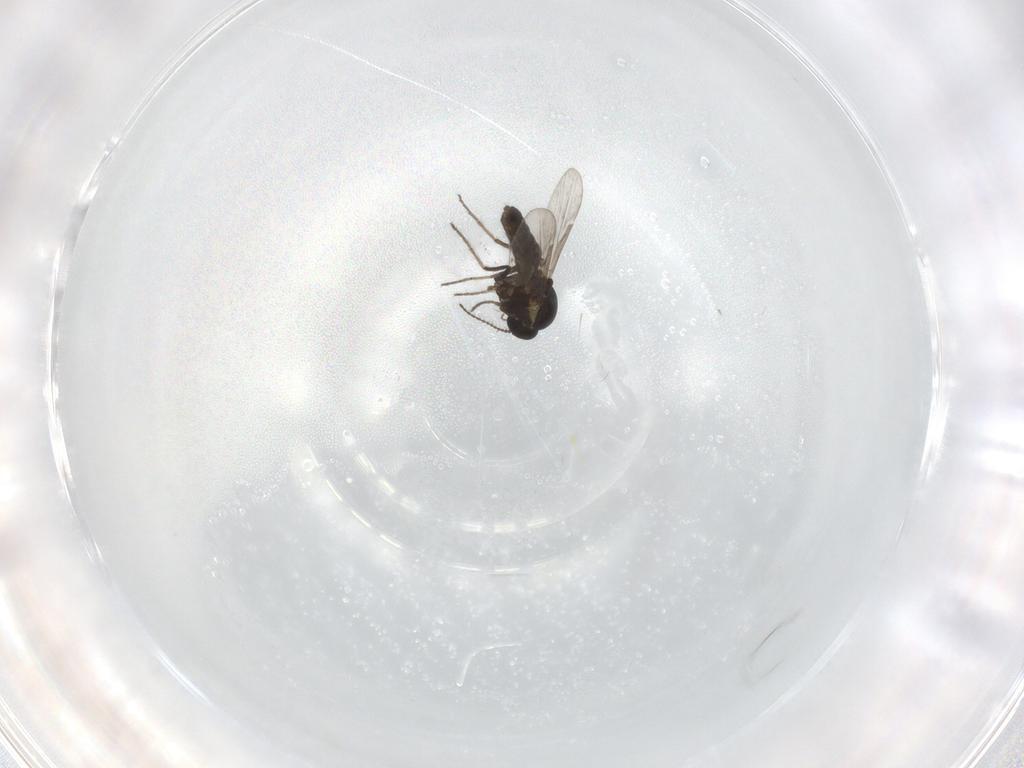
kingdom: Animalia
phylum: Arthropoda
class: Insecta
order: Diptera
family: Ceratopogonidae
